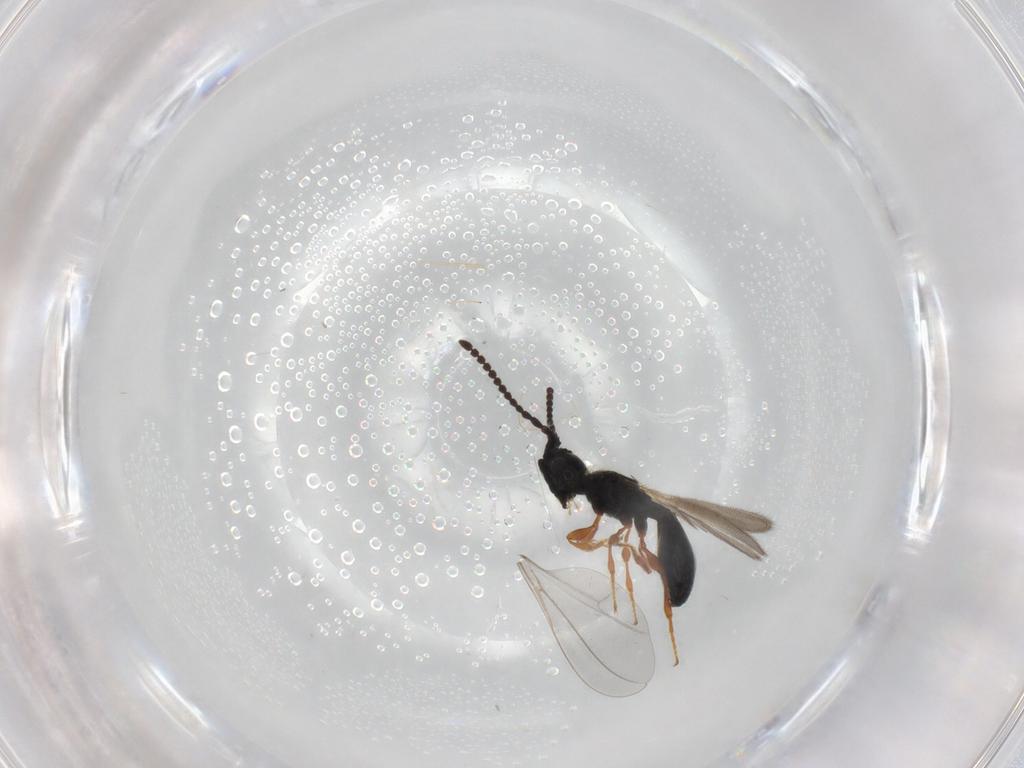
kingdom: Animalia
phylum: Arthropoda
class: Insecta
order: Hymenoptera
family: Diapriidae
